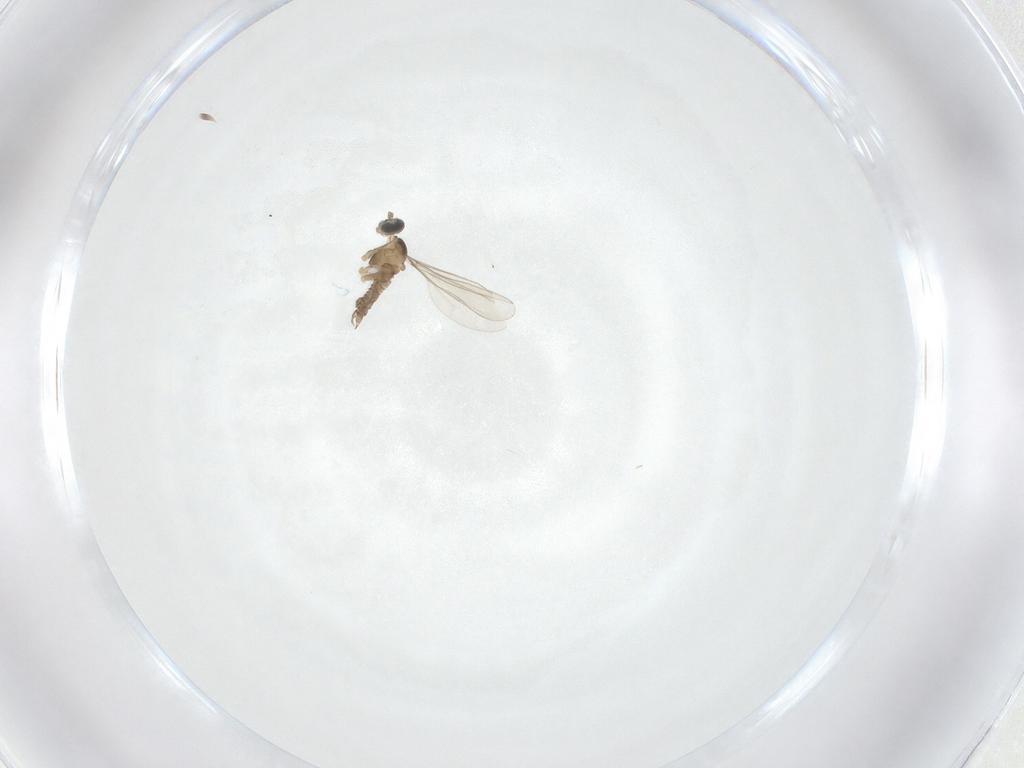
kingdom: Animalia
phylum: Arthropoda
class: Insecta
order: Diptera
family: Cecidomyiidae
